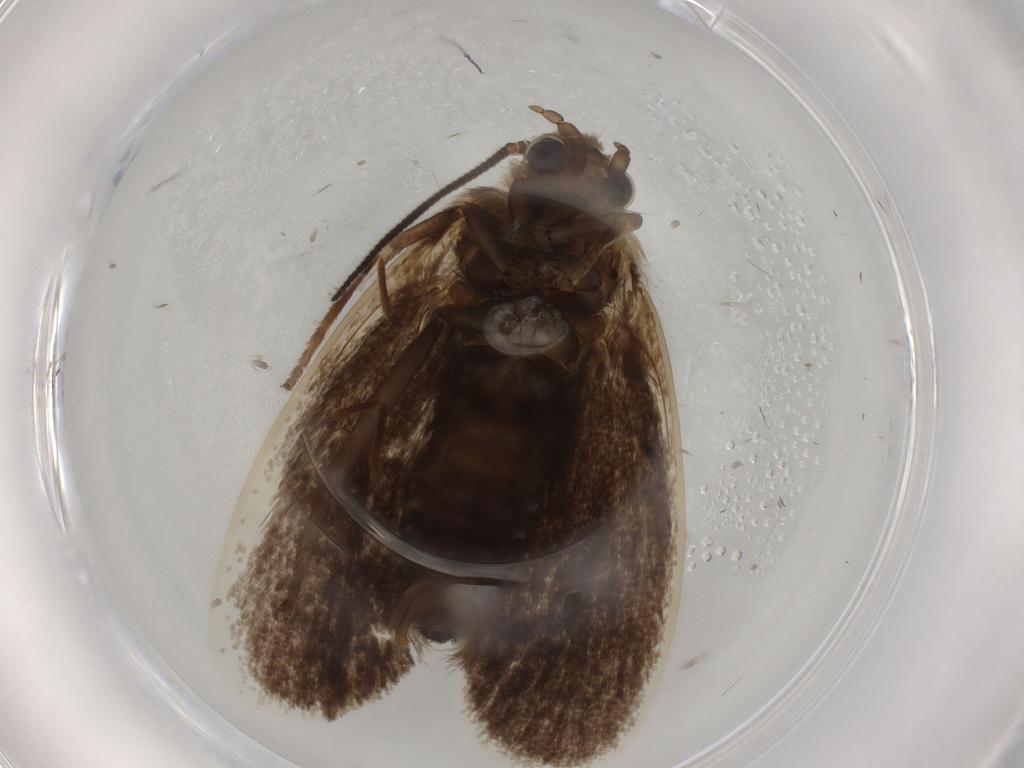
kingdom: Animalia
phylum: Arthropoda
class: Insecta
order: Lepidoptera
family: Tineidae
